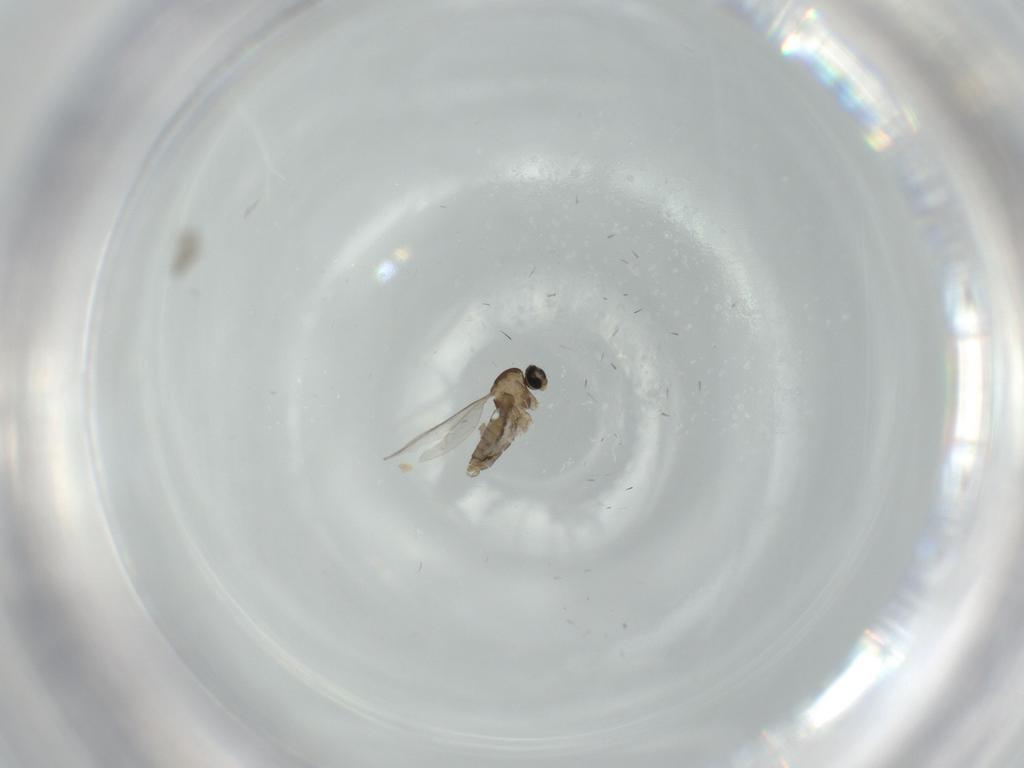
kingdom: Animalia
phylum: Arthropoda
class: Insecta
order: Diptera
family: Cecidomyiidae
